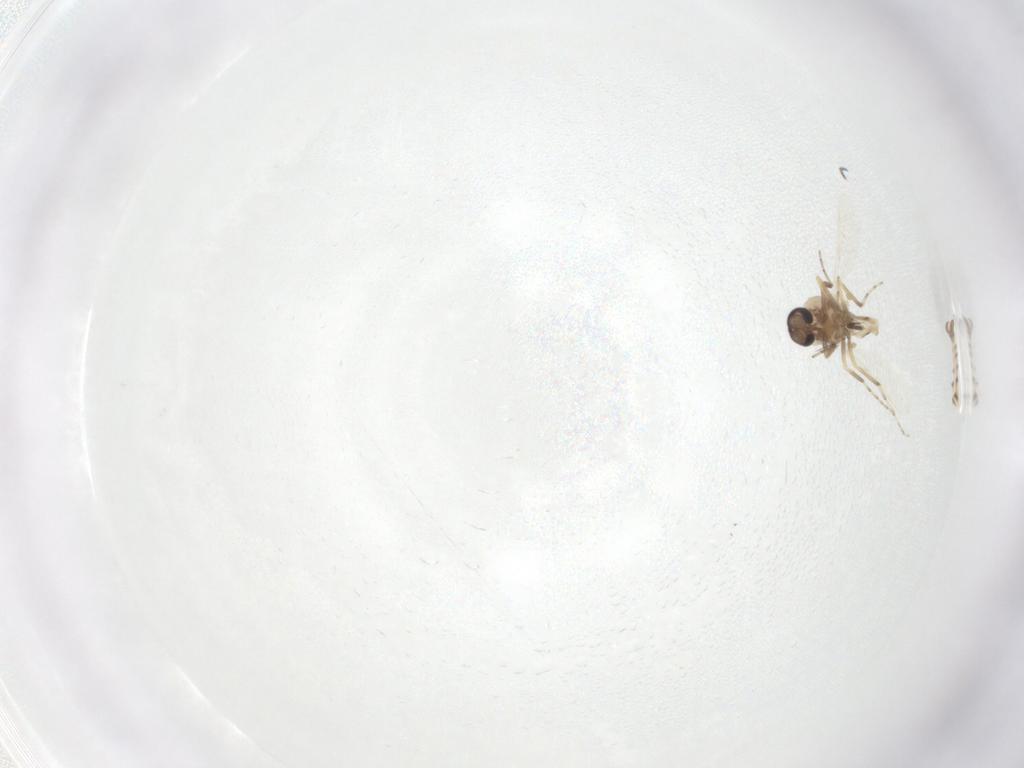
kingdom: Animalia
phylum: Arthropoda
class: Insecta
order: Diptera
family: Ceratopogonidae
